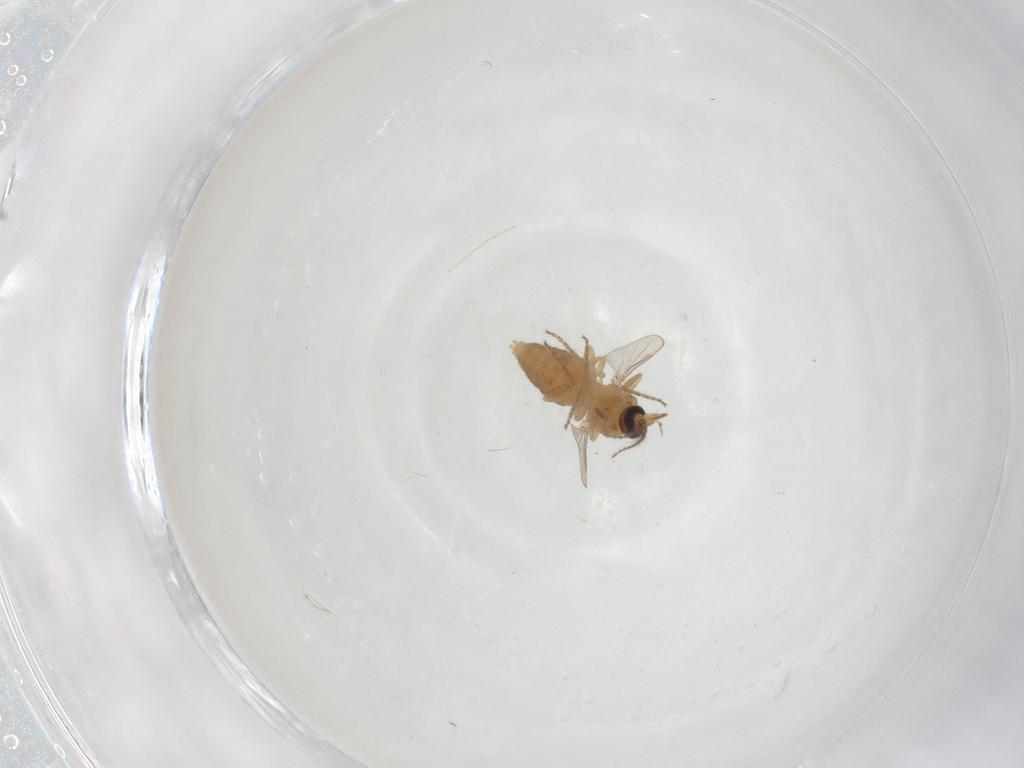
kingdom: Animalia
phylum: Arthropoda
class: Insecta
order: Diptera
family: Ceratopogonidae
